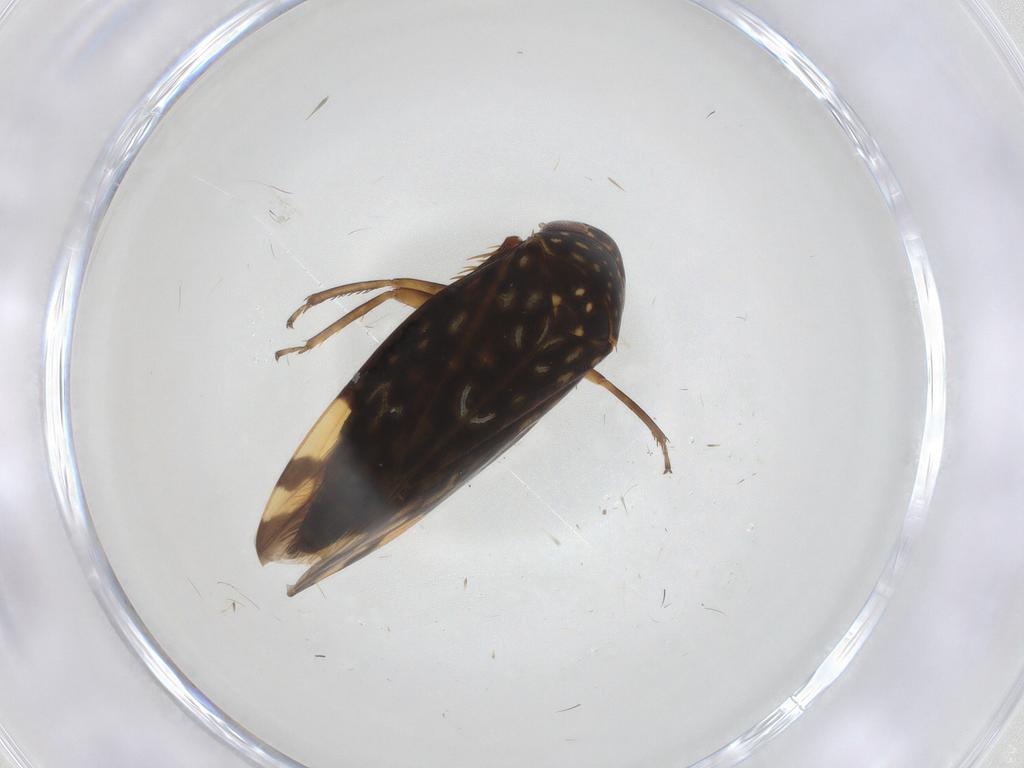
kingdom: Animalia
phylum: Arthropoda
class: Insecta
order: Hemiptera
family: Cicadellidae
